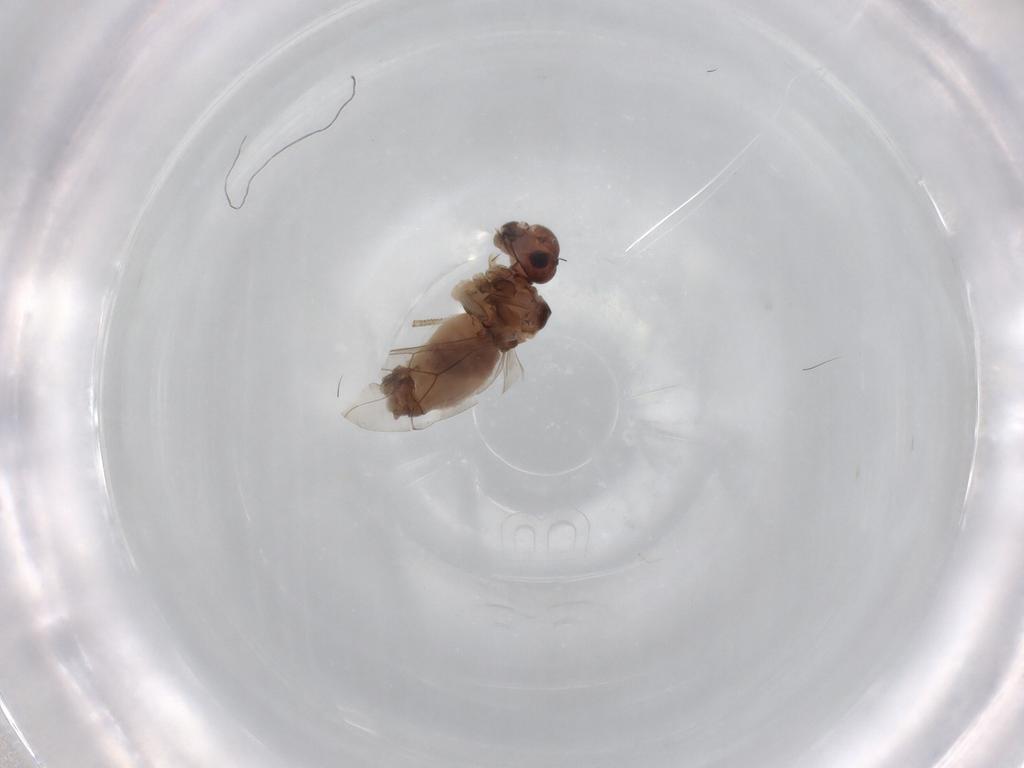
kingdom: Animalia
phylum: Arthropoda
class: Insecta
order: Psocodea
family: Peripsocidae
